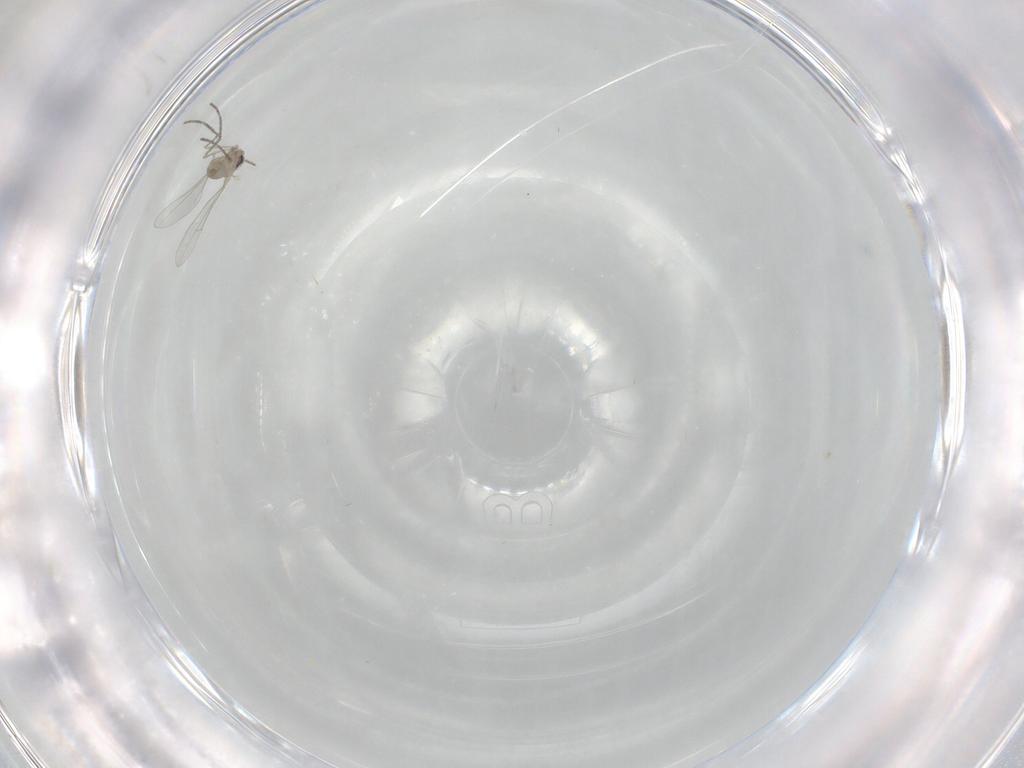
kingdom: Animalia
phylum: Arthropoda
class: Insecta
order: Diptera
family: Cecidomyiidae
